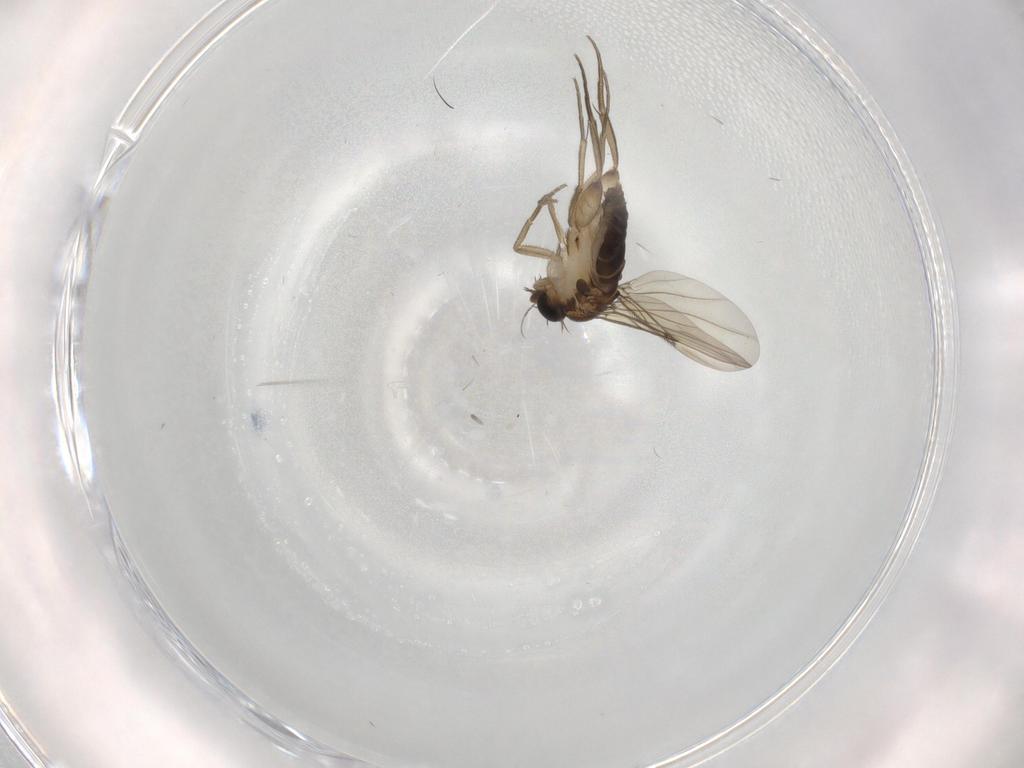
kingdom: Animalia
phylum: Arthropoda
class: Insecta
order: Diptera
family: Phoridae
